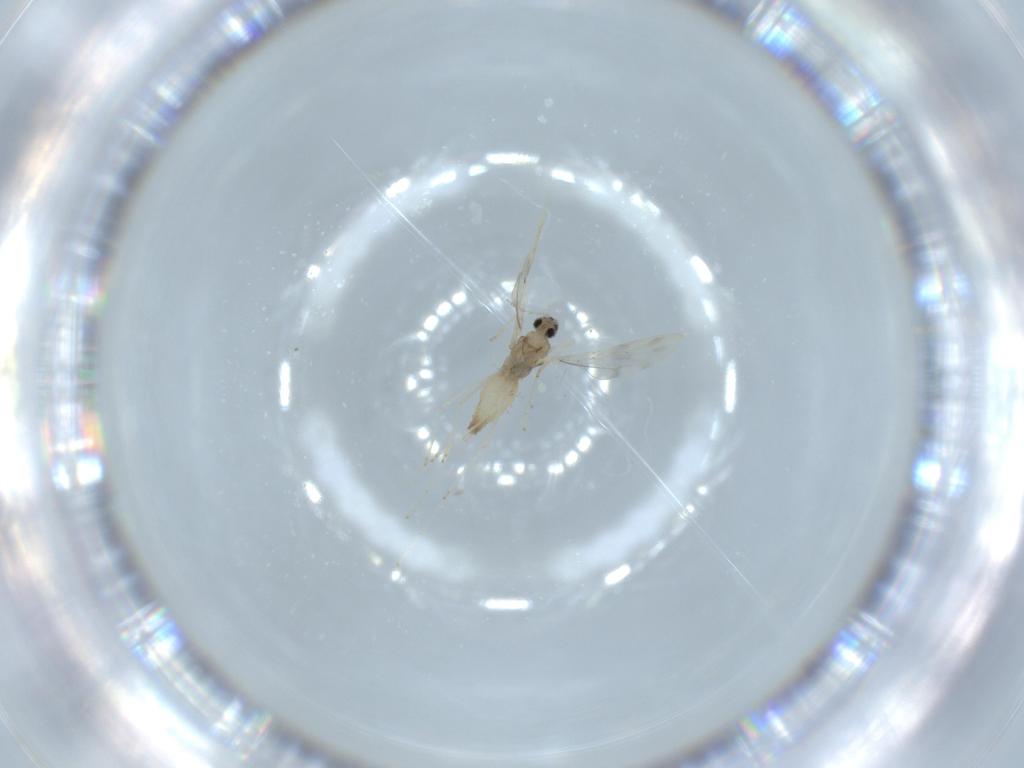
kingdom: Animalia
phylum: Arthropoda
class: Insecta
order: Diptera
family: Cecidomyiidae
